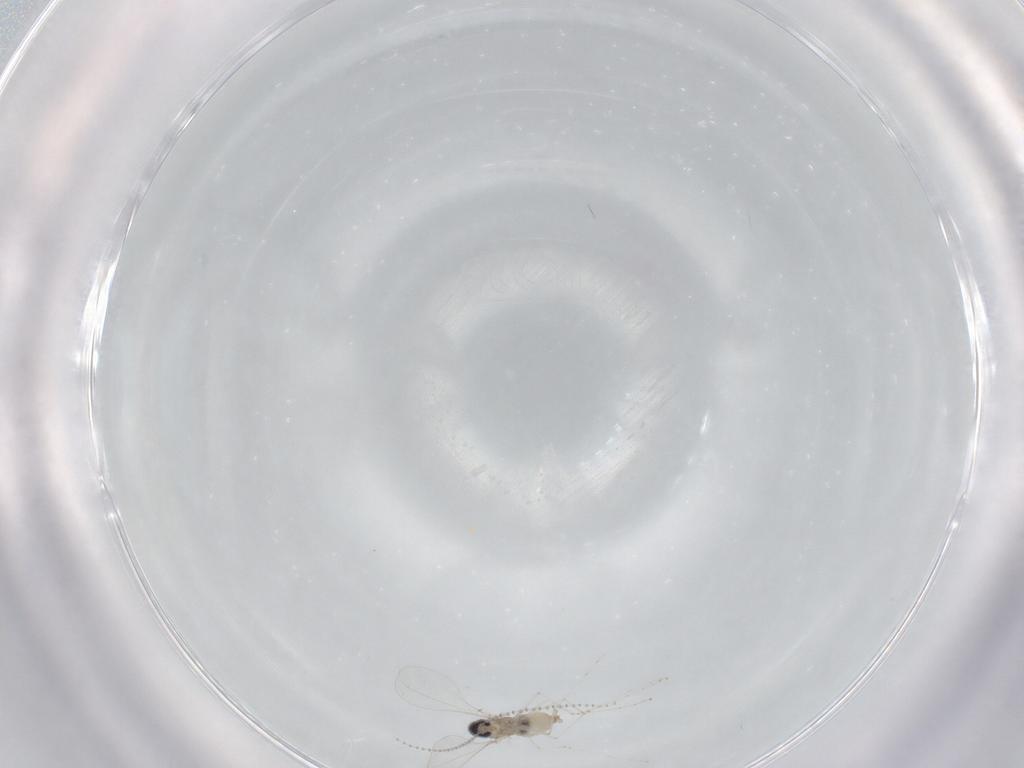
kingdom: Animalia
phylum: Arthropoda
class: Insecta
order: Diptera
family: Cecidomyiidae
